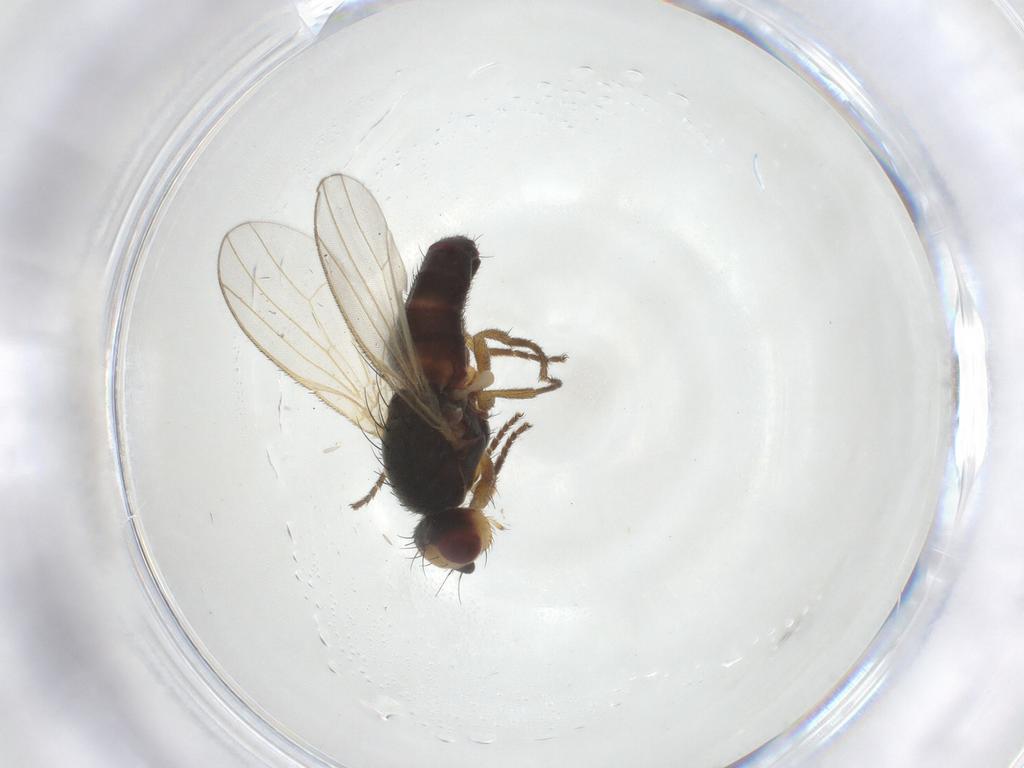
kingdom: Animalia
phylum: Arthropoda
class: Insecta
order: Diptera
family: Heleomyzidae
